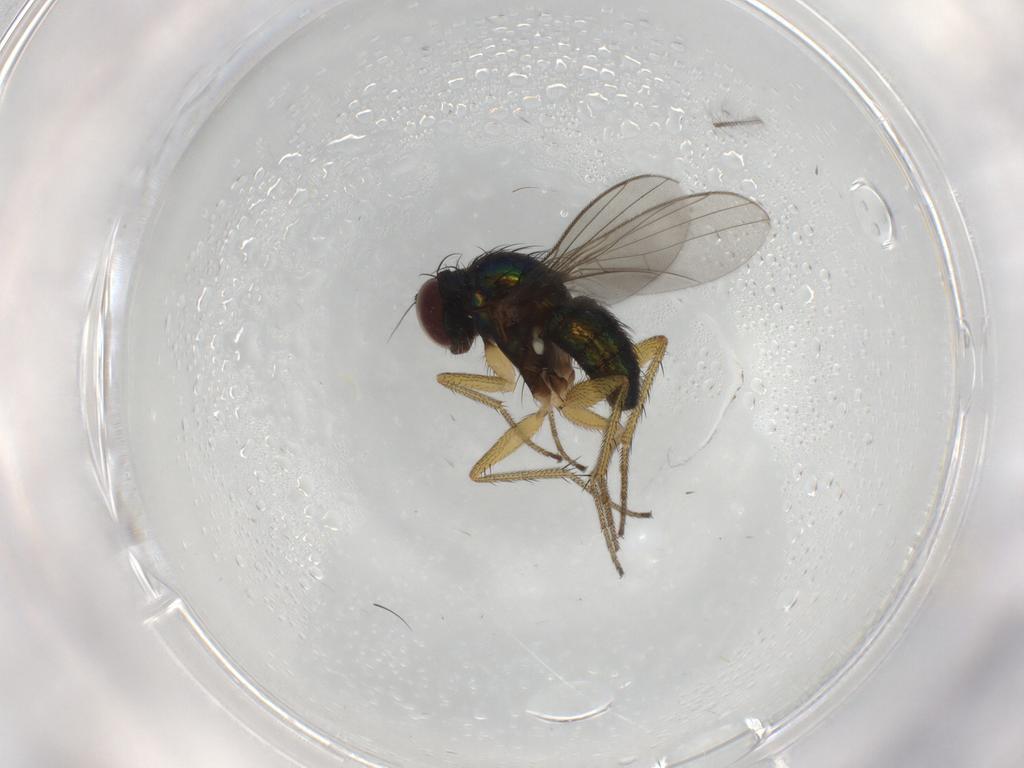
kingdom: Animalia
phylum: Arthropoda
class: Insecta
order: Diptera
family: Dolichopodidae
